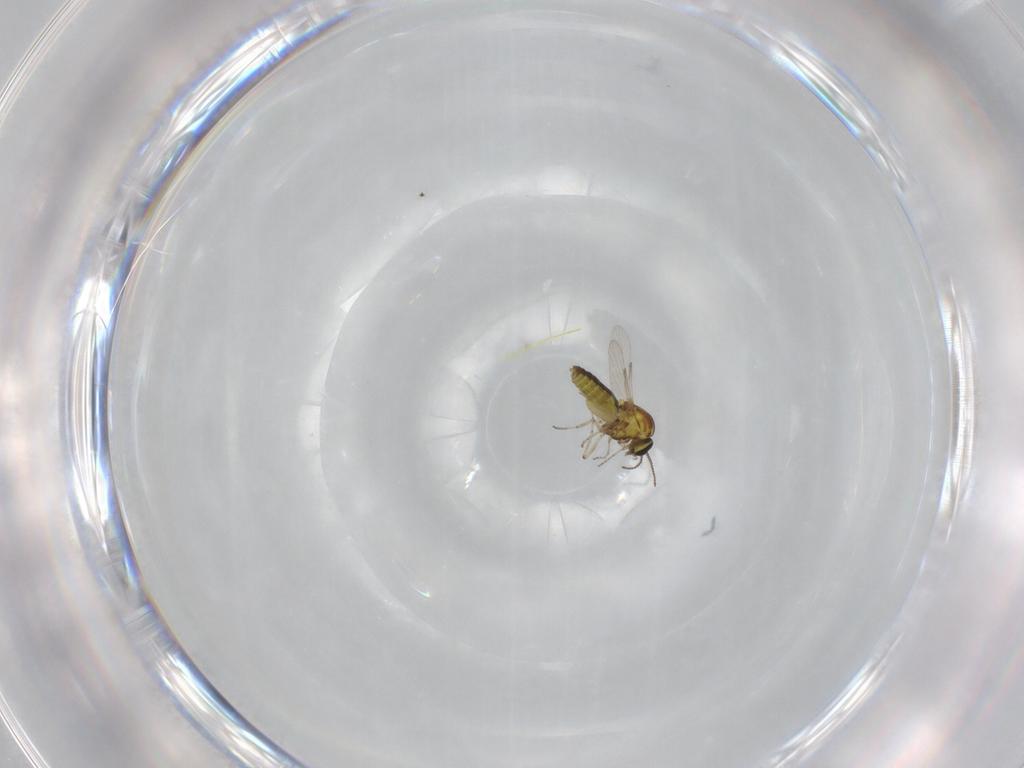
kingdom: Animalia
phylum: Arthropoda
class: Insecta
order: Diptera
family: Ceratopogonidae
